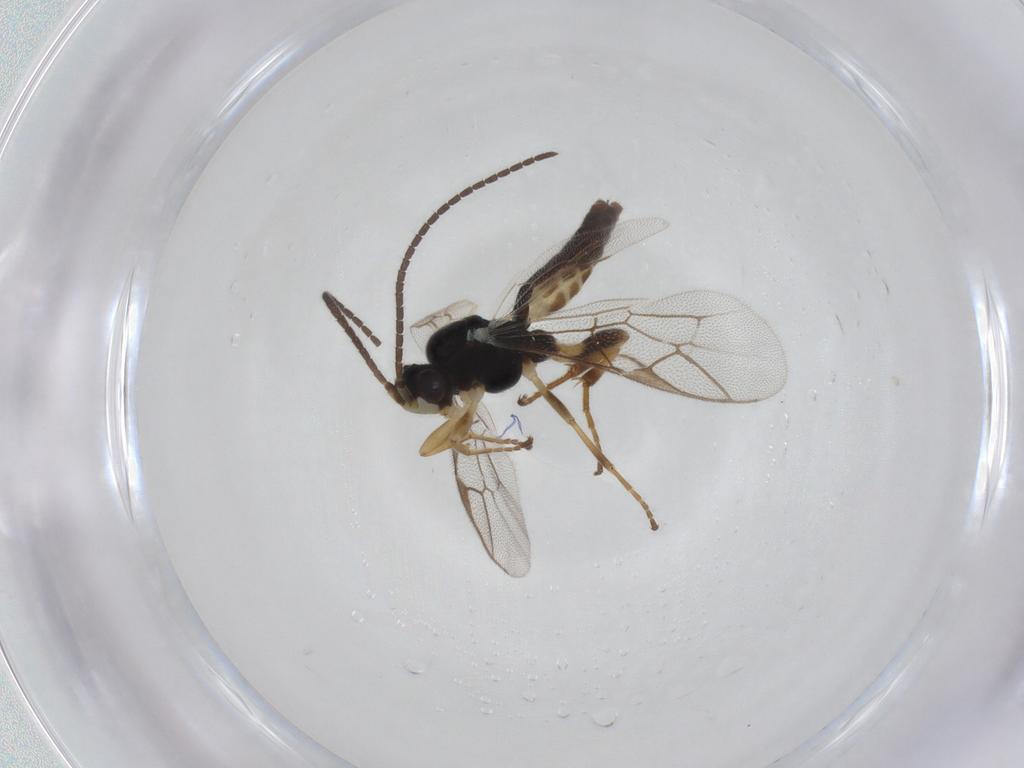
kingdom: Animalia
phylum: Arthropoda
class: Insecta
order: Hymenoptera
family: Ichneumonidae
